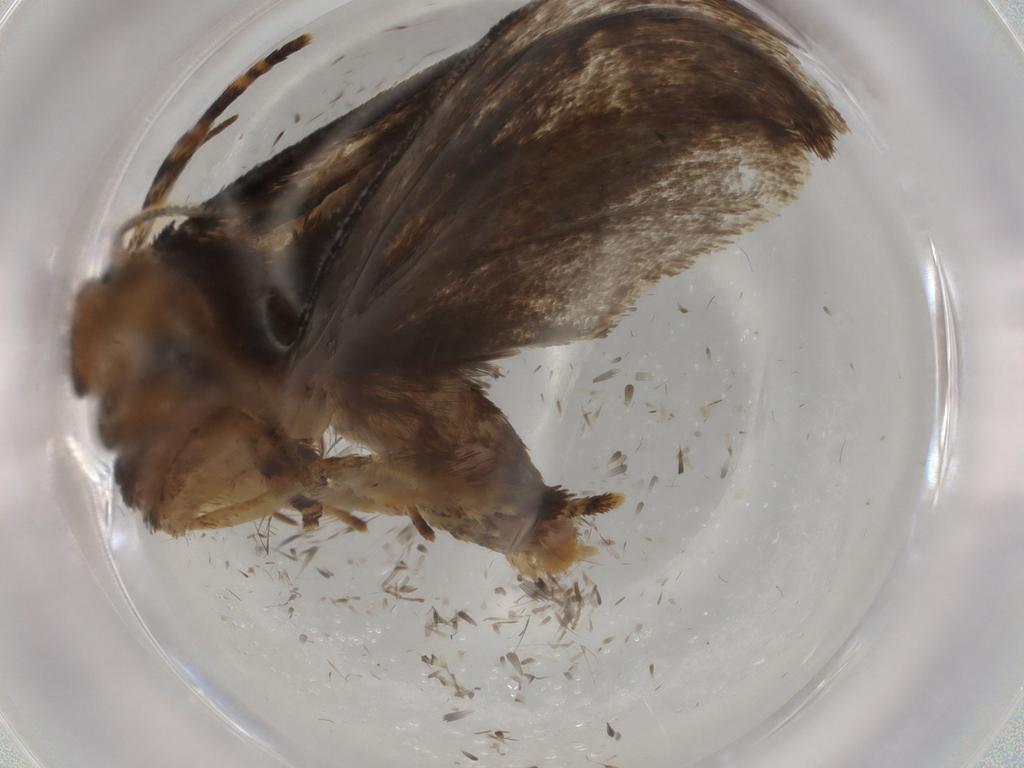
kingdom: Animalia
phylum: Arthropoda
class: Insecta
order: Lepidoptera
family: Tineidae
